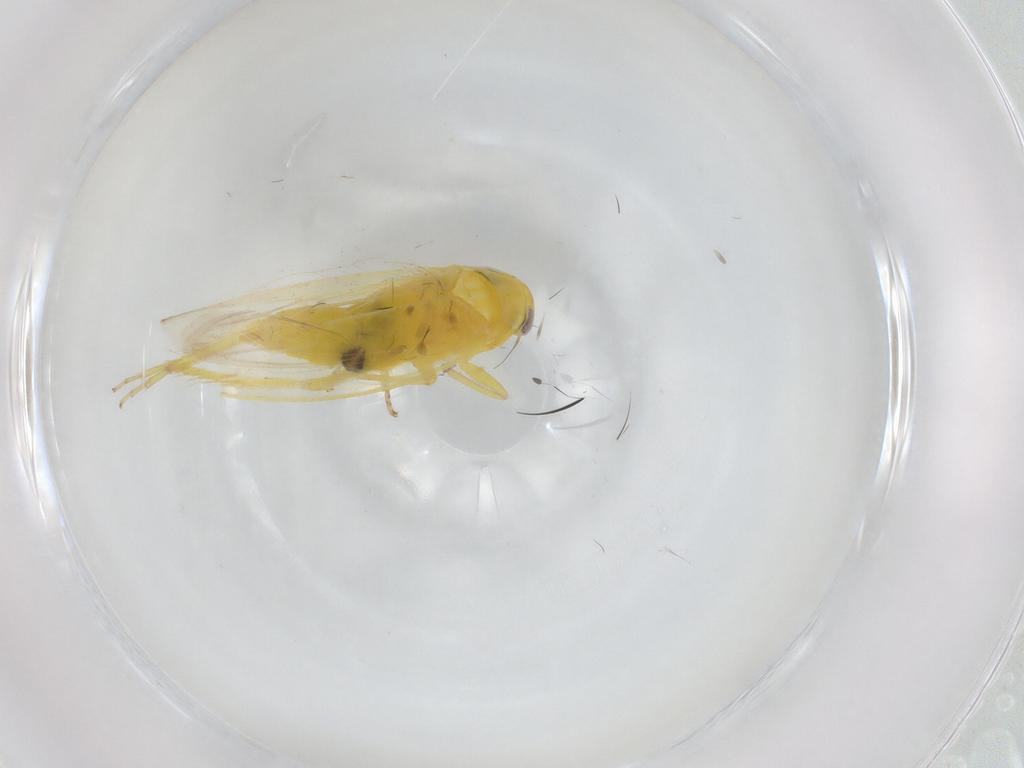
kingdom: Animalia
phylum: Arthropoda
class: Insecta
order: Hemiptera
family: Cicadellidae
